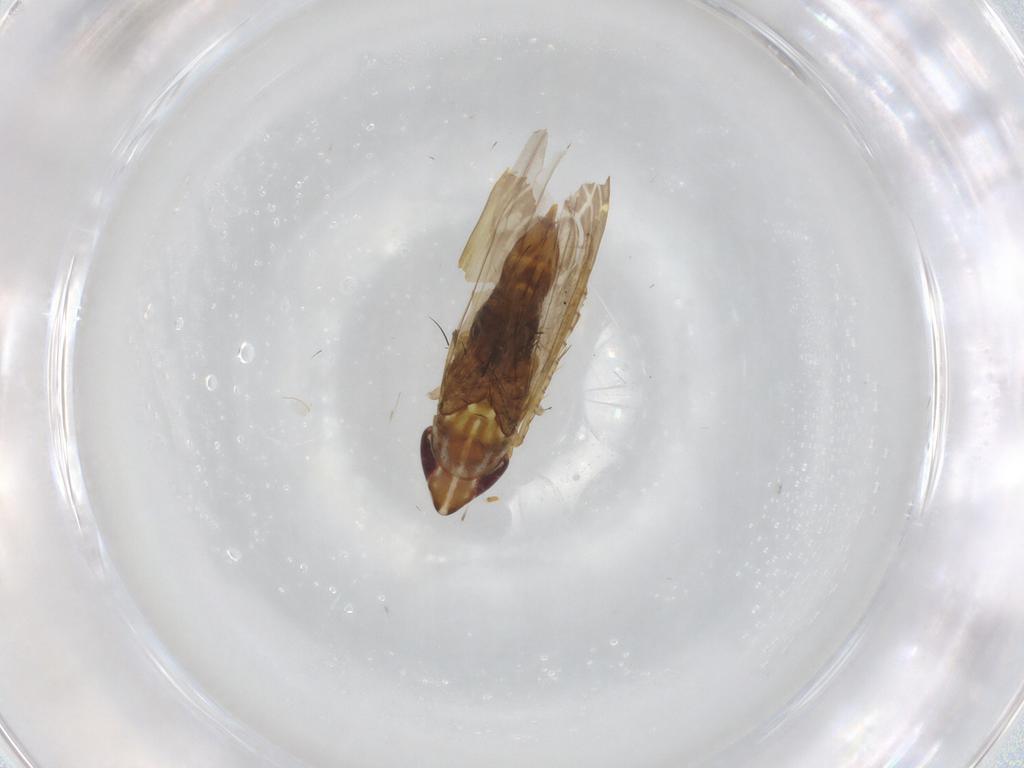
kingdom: Animalia
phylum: Arthropoda
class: Insecta
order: Hemiptera
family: Cicadellidae
